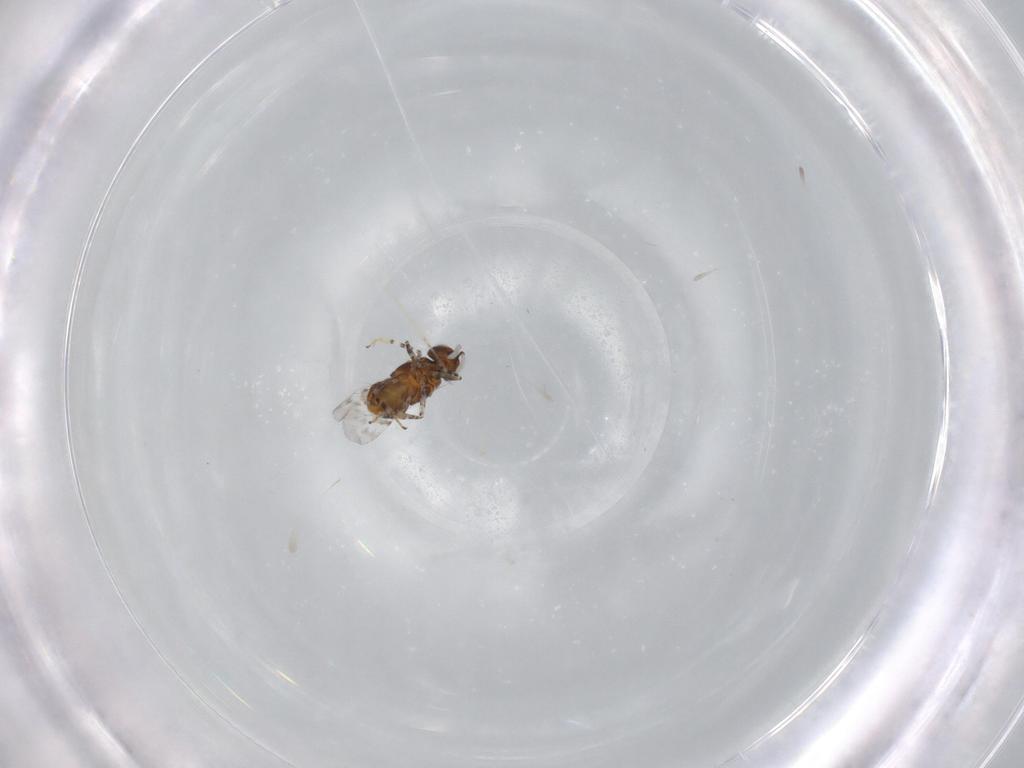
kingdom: Animalia
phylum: Arthropoda
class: Insecta
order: Hymenoptera
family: Encyrtidae
